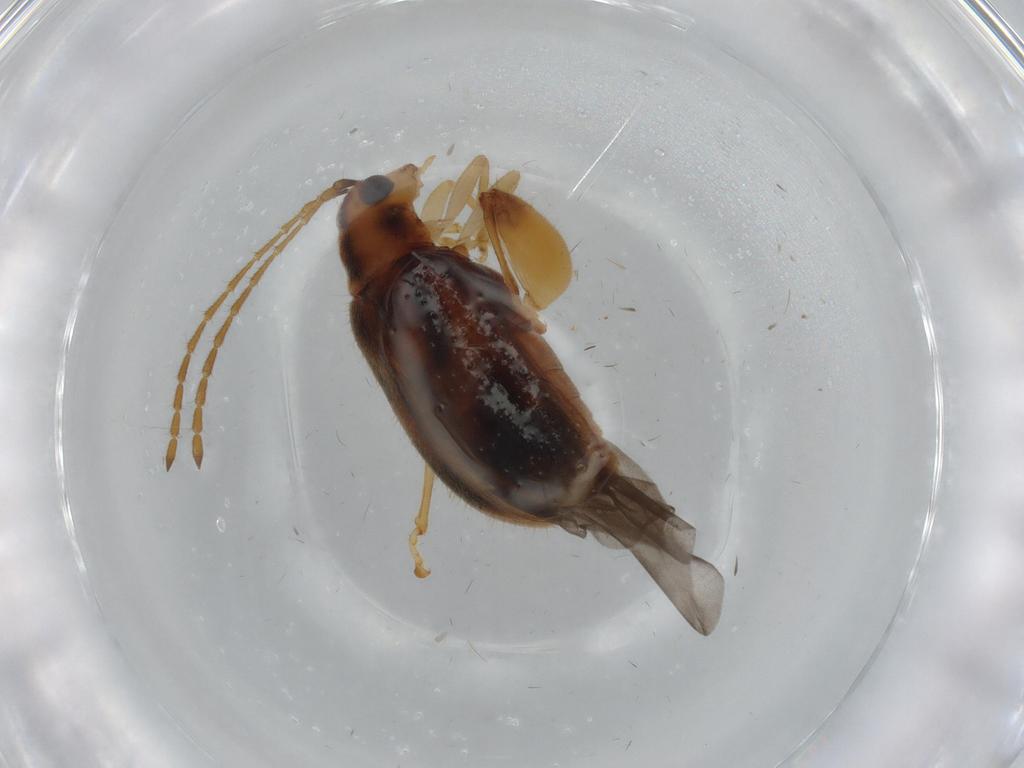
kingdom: Animalia
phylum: Arthropoda
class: Insecta
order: Coleoptera
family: Chrysomelidae
